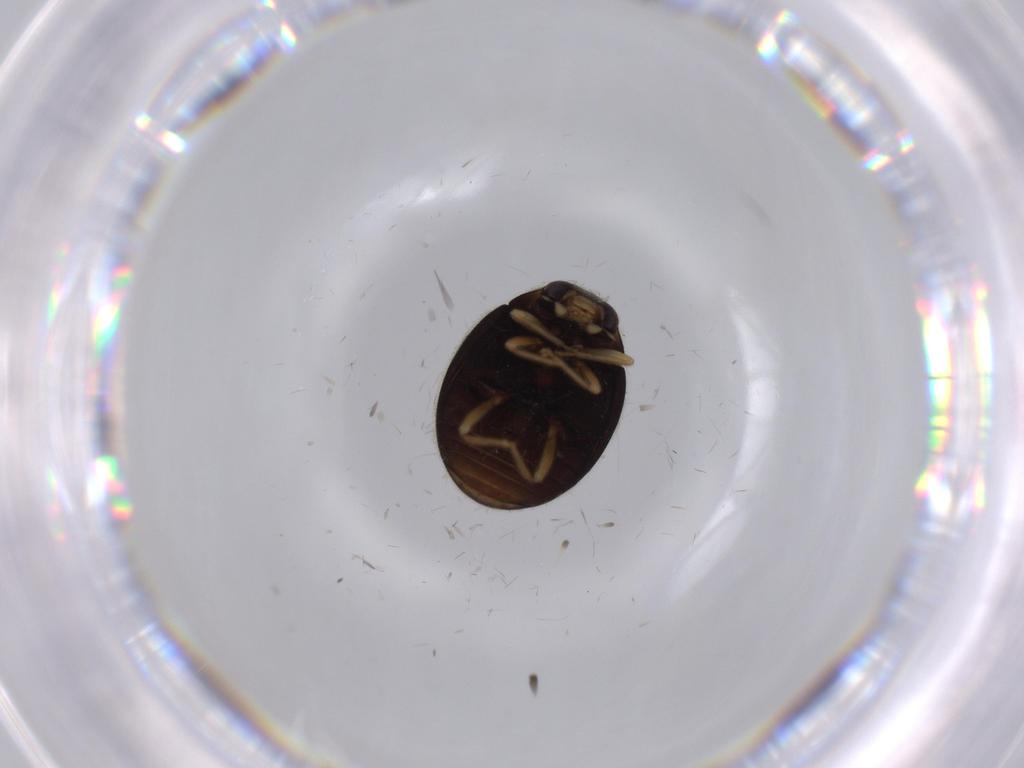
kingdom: Animalia
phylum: Arthropoda
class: Insecta
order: Coleoptera
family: Coccinellidae
